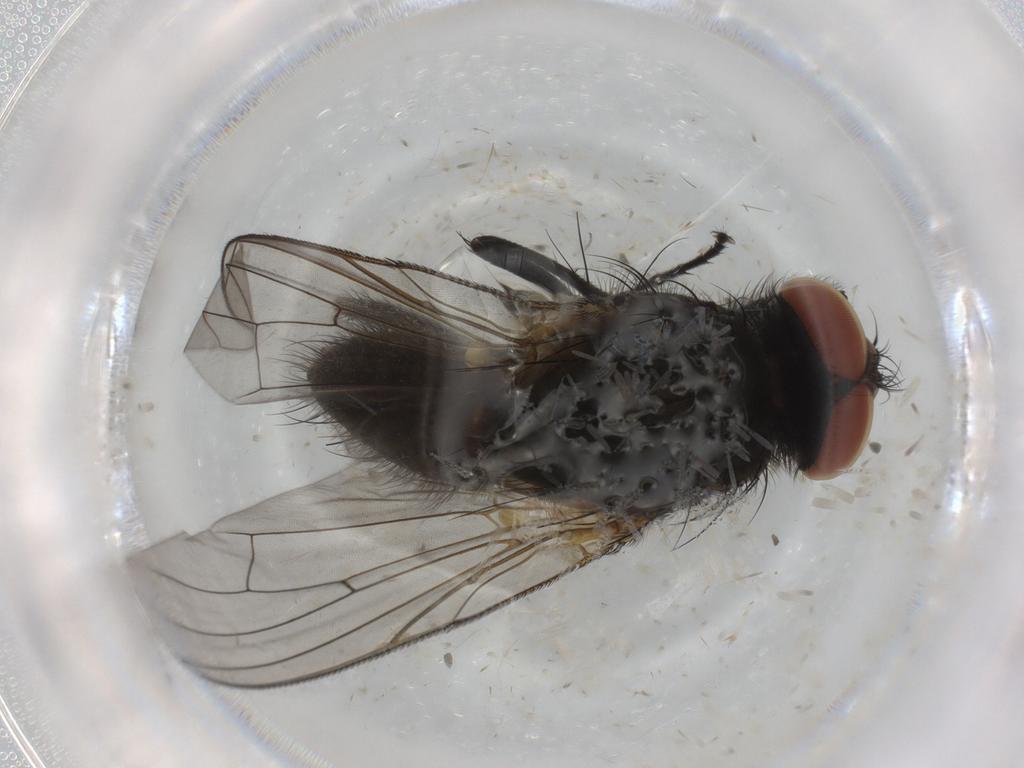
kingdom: Animalia
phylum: Arthropoda
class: Insecta
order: Diptera
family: Anthomyiidae
